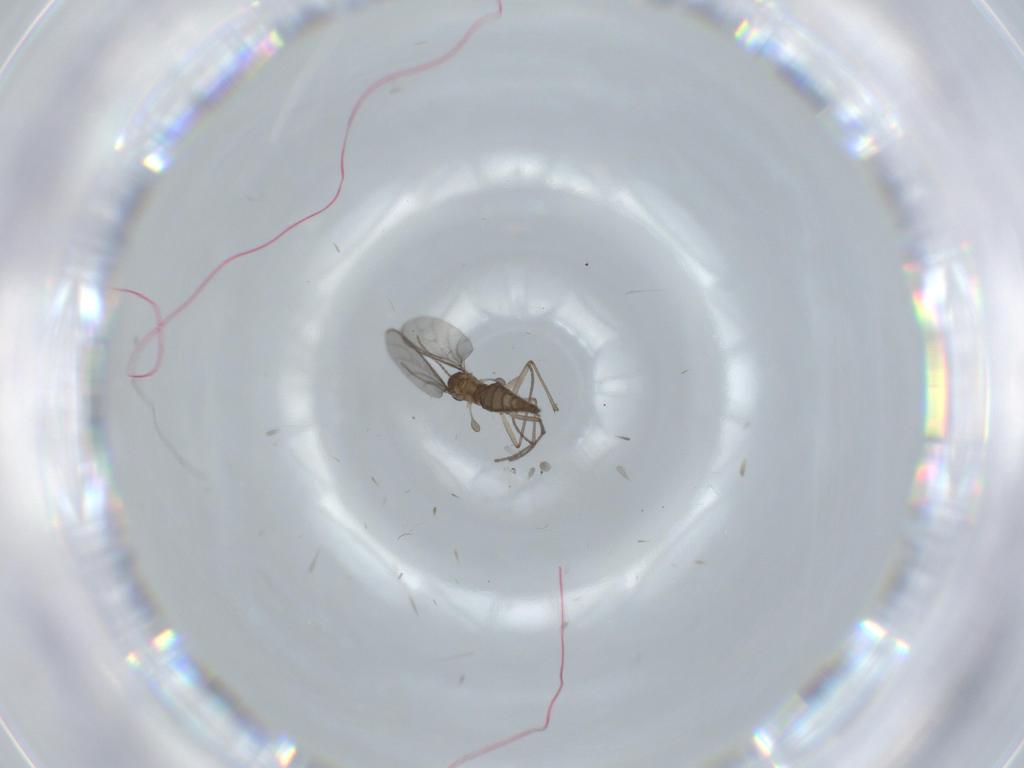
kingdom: Animalia
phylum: Arthropoda
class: Insecta
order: Diptera
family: Sciaridae
